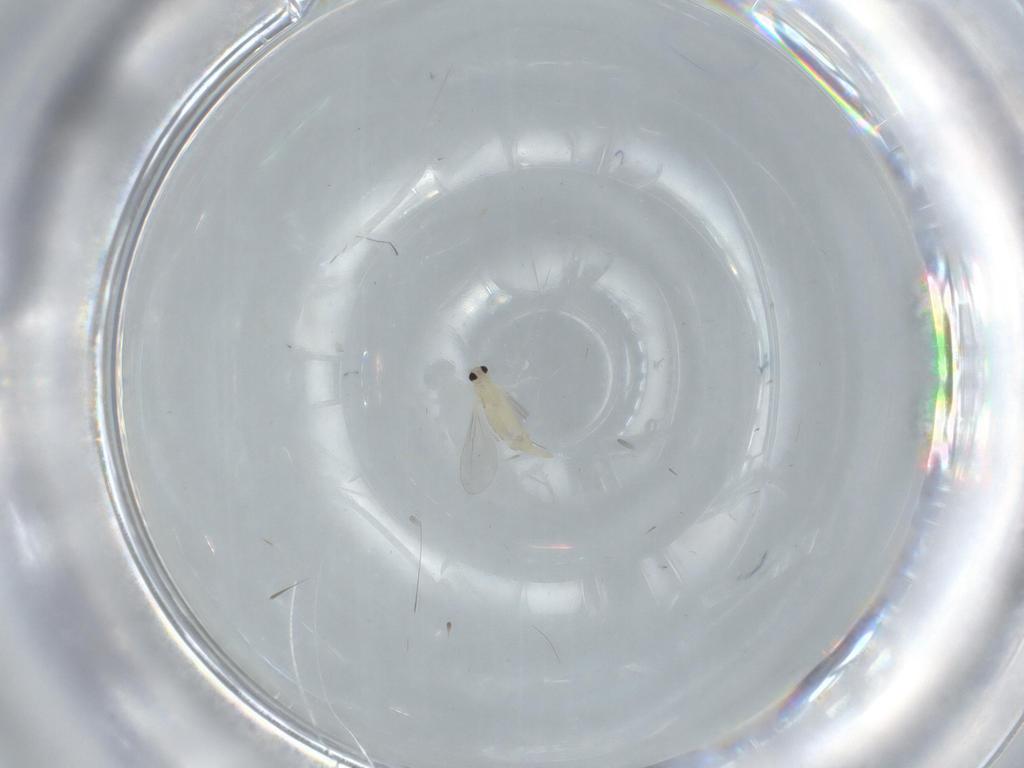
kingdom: Animalia
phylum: Arthropoda
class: Insecta
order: Diptera
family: Cecidomyiidae
